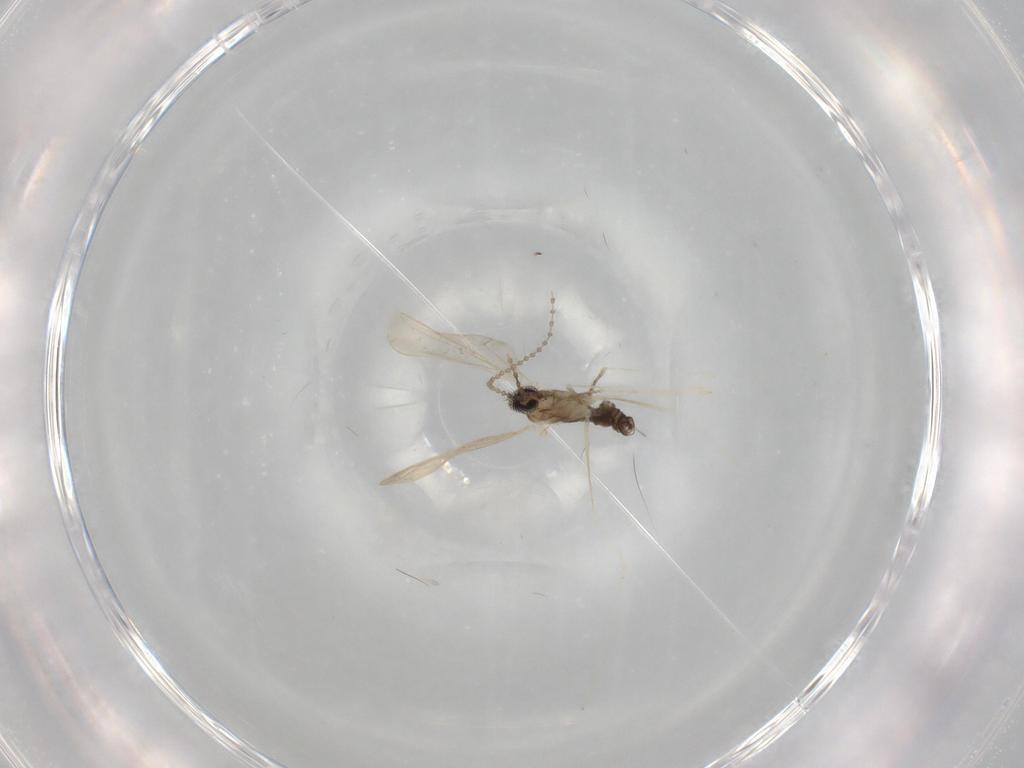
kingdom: Animalia
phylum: Arthropoda
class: Insecta
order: Diptera
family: Cecidomyiidae
